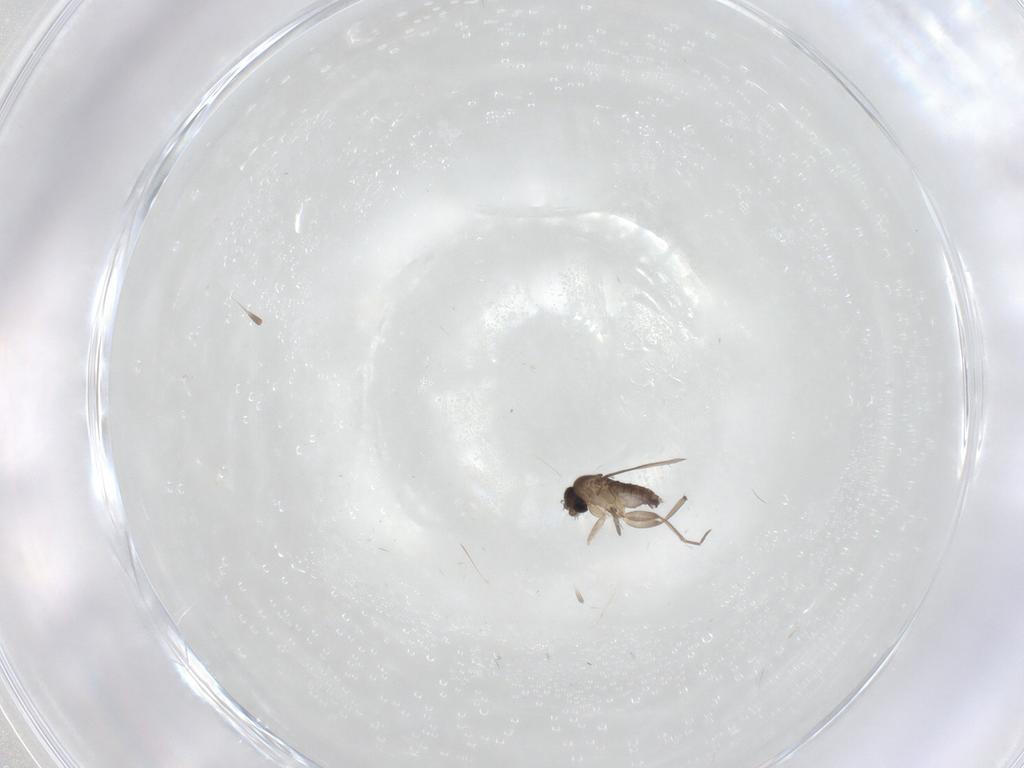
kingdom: Animalia
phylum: Arthropoda
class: Insecta
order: Diptera
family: Phoridae
